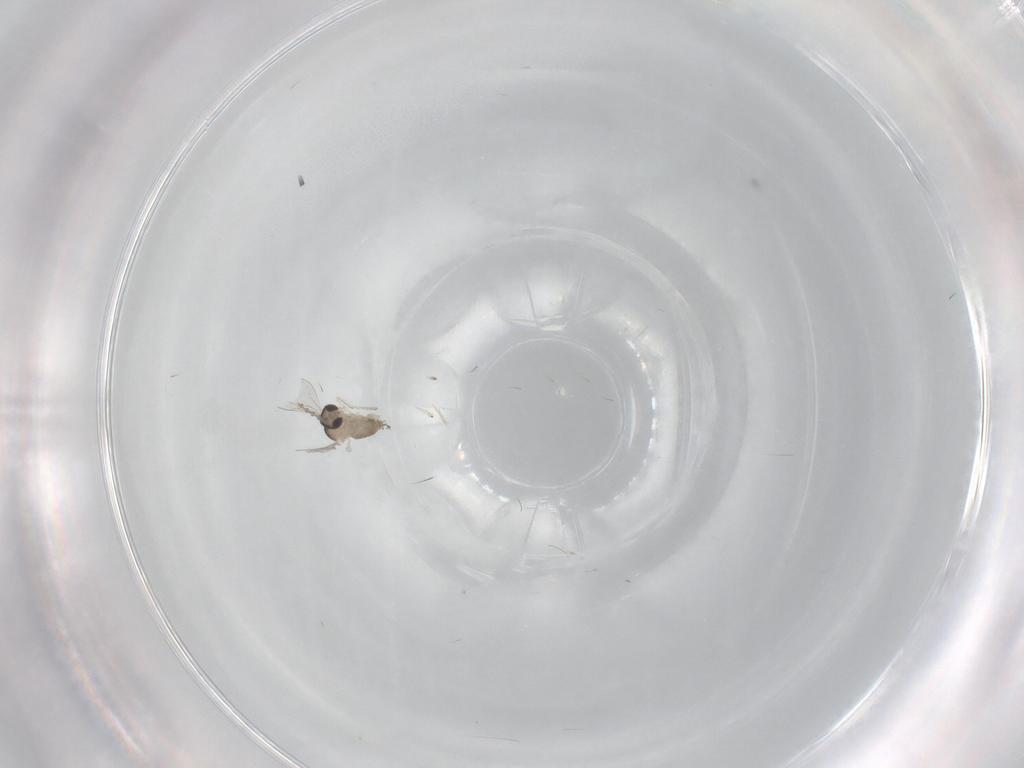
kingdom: Animalia
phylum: Arthropoda
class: Insecta
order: Diptera
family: Cecidomyiidae
